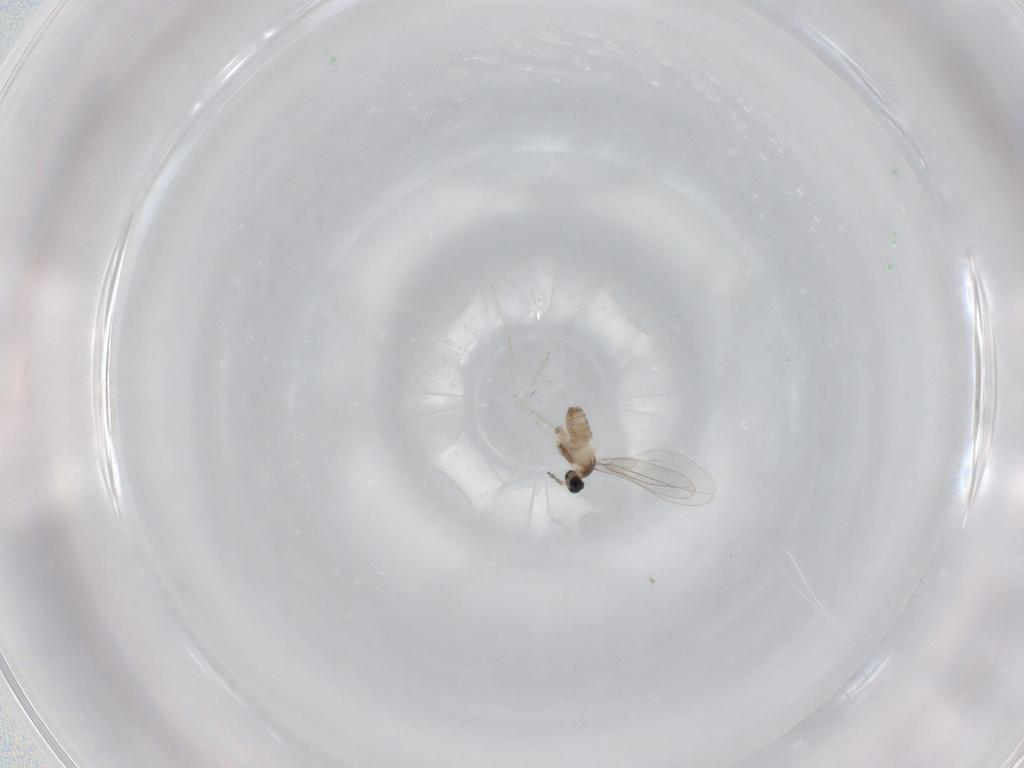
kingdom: Animalia
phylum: Arthropoda
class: Insecta
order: Diptera
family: Cecidomyiidae
